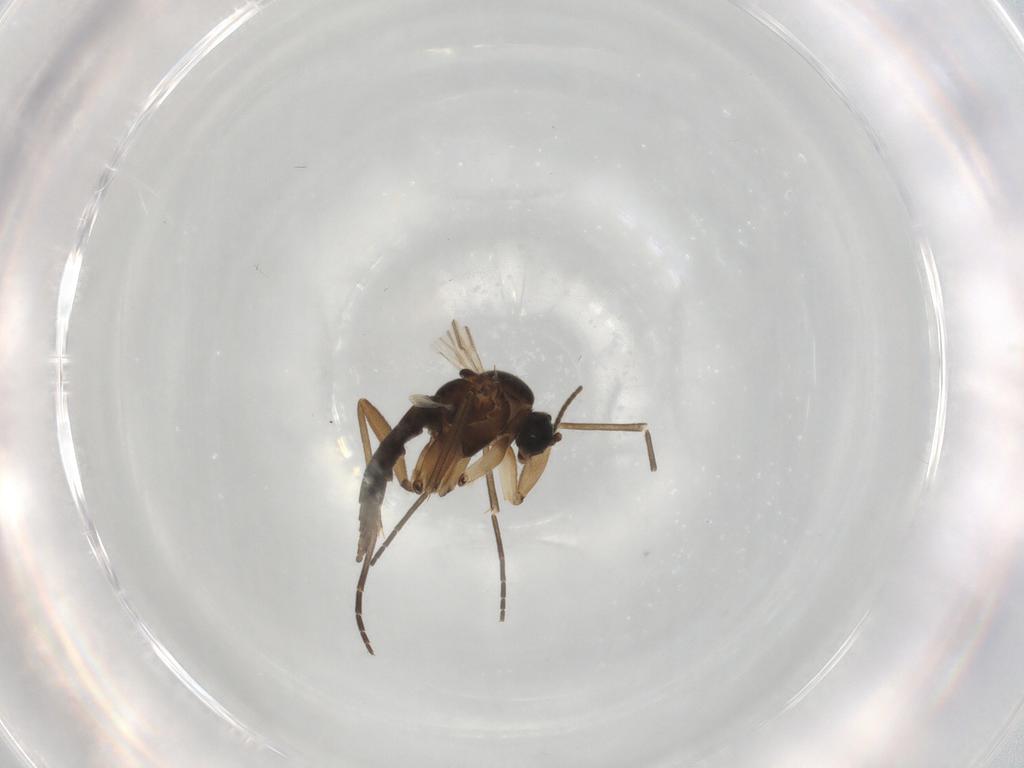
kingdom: Animalia
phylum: Arthropoda
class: Insecta
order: Diptera
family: Sciaridae
